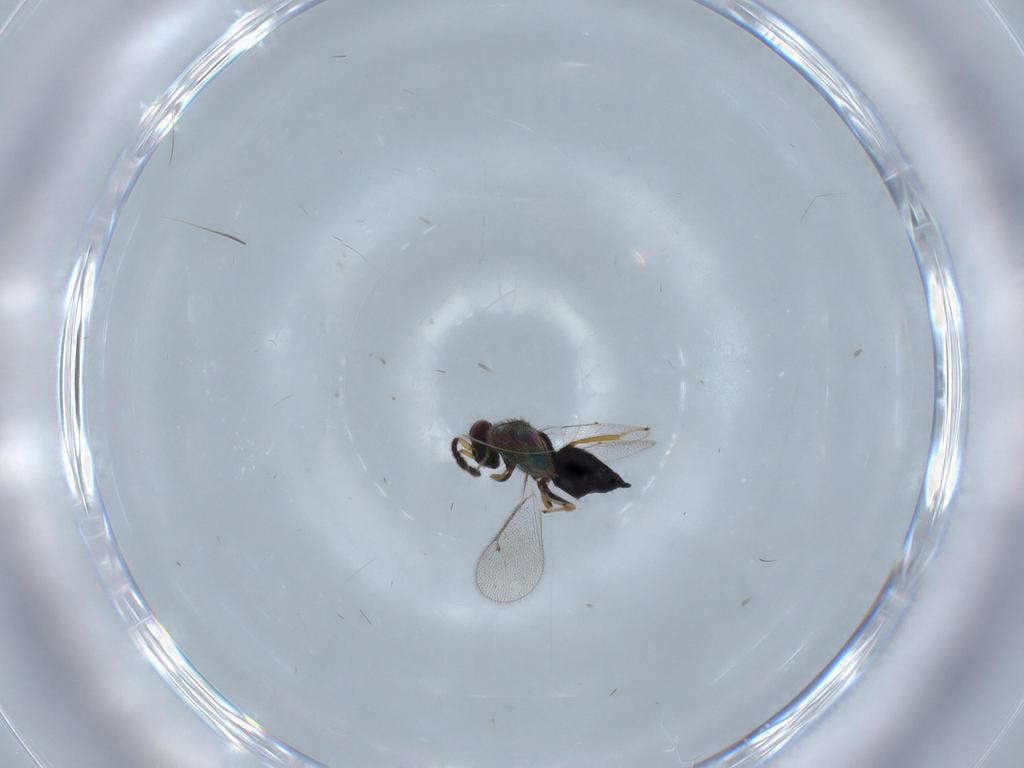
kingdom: Animalia
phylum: Arthropoda
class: Insecta
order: Hymenoptera
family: Eulophidae
